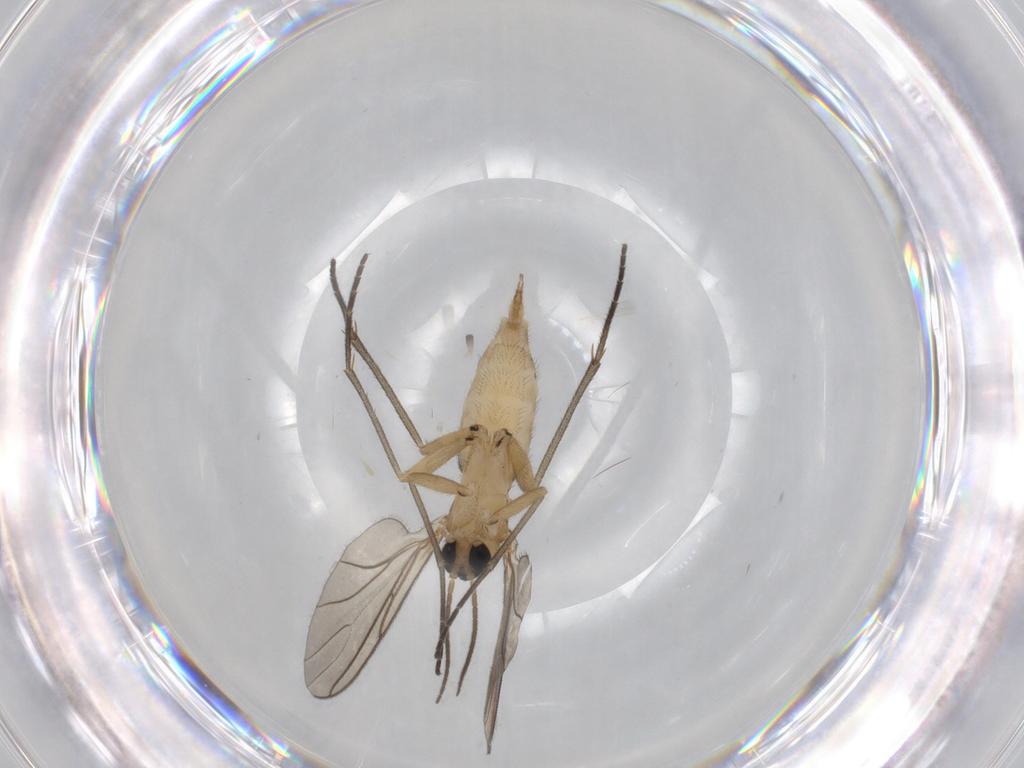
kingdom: Animalia
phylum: Arthropoda
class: Insecta
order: Diptera
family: Sciaridae
